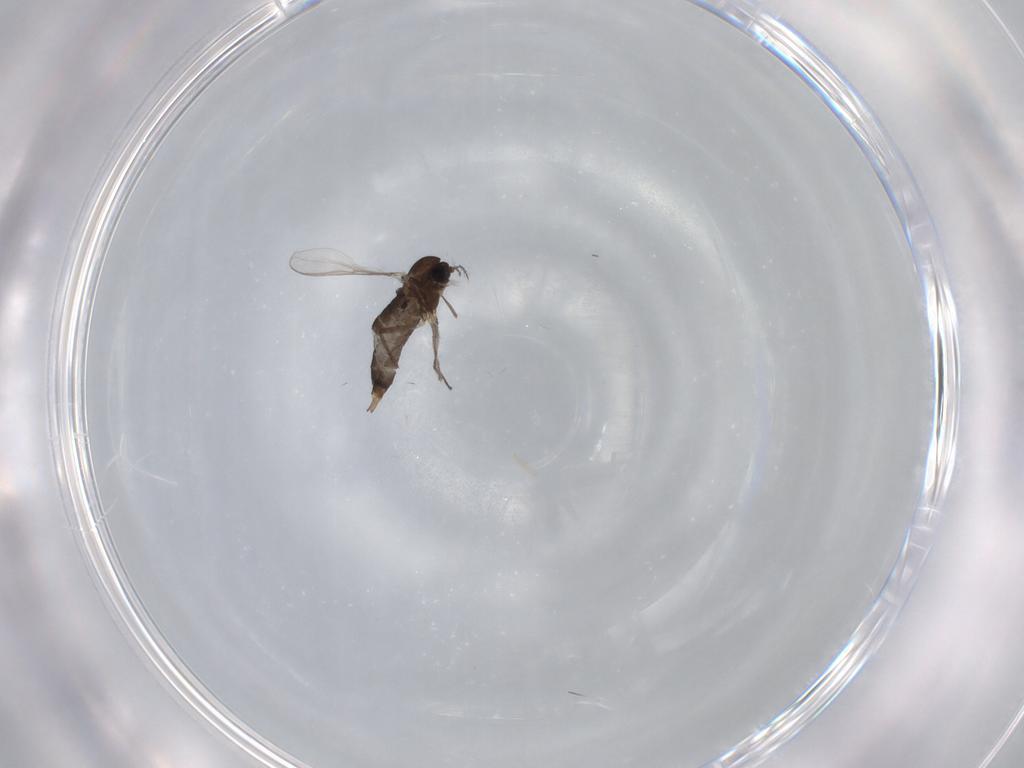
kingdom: Animalia
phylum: Arthropoda
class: Insecta
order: Diptera
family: Chironomidae
